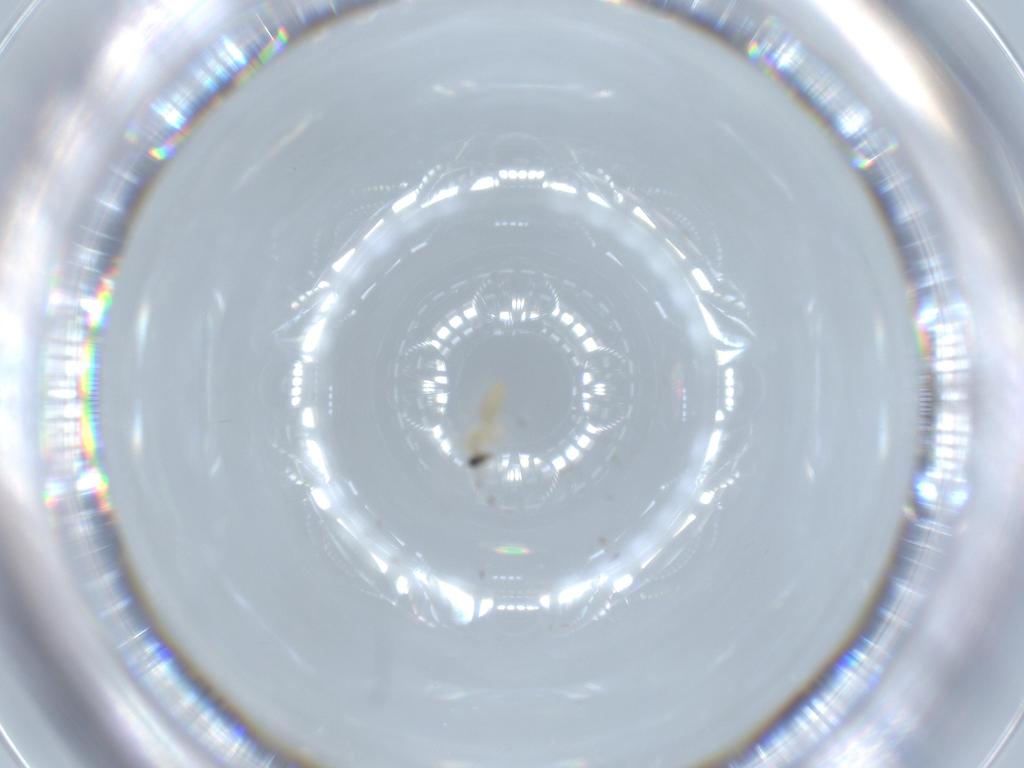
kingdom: Animalia
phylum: Arthropoda
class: Insecta
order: Diptera
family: Cecidomyiidae
